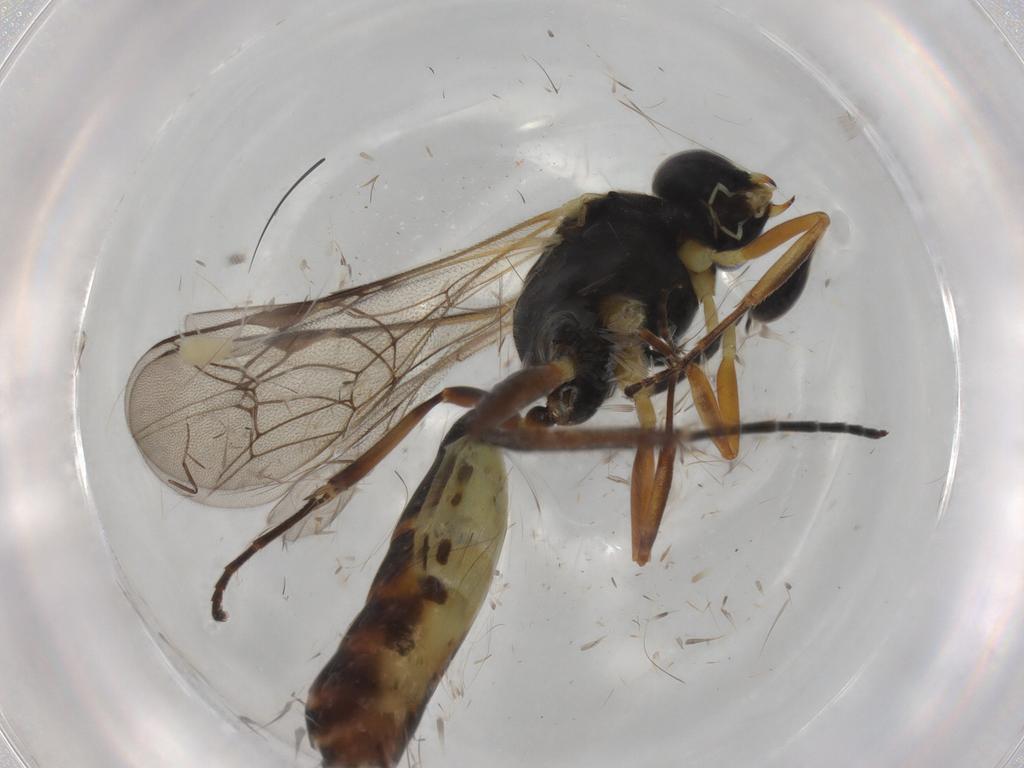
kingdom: Animalia
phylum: Arthropoda
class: Insecta
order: Hymenoptera
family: Ichneumonidae
